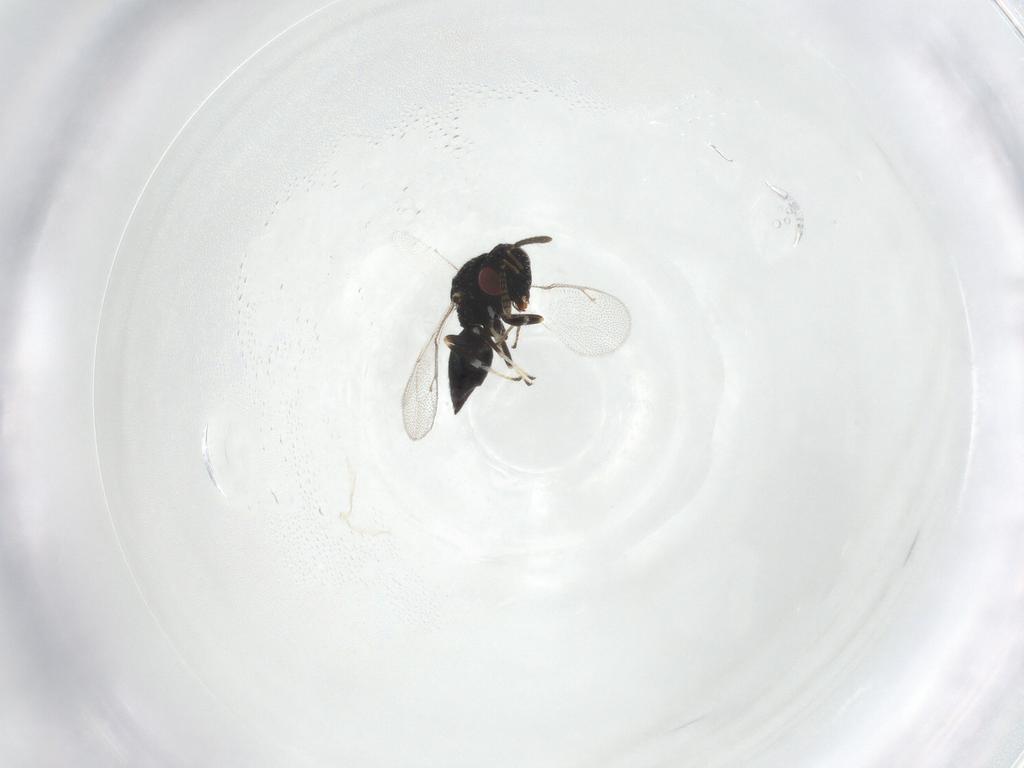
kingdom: Animalia
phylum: Arthropoda
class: Insecta
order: Hymenoptera
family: Pteromalidae
